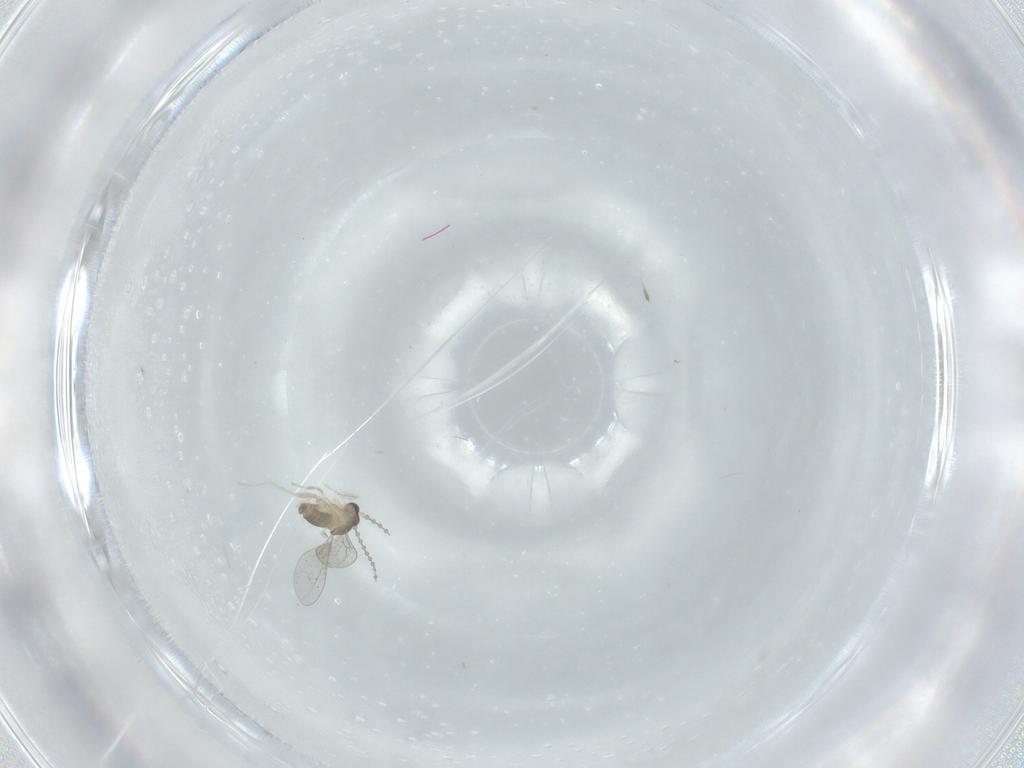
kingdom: Animalia
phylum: Arthropoda
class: Insecta
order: Diptera
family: Cecidomyiidae
